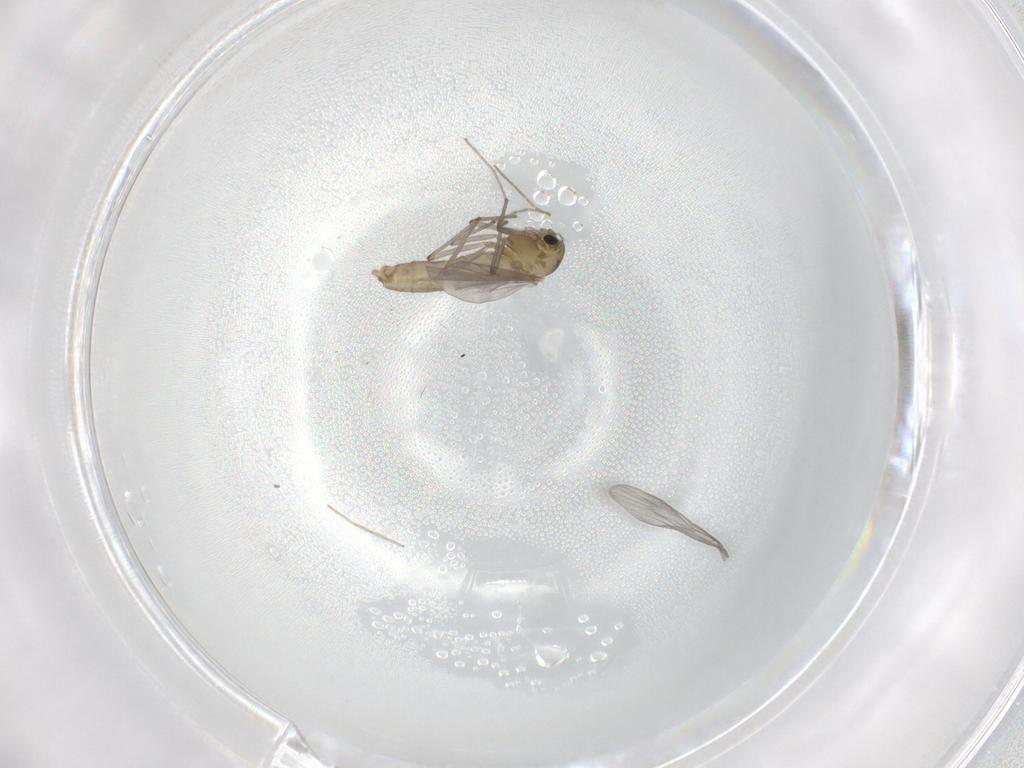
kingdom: Animalia
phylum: Arthropoda
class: Insecta
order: Diptera
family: Chironomidae
